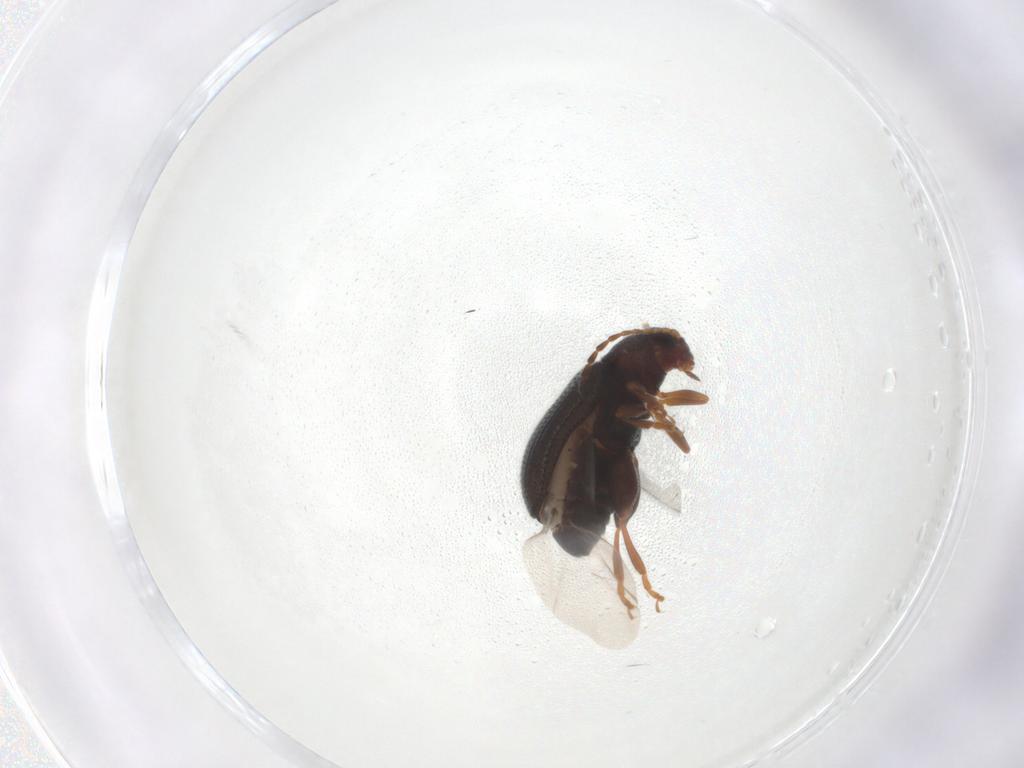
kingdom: Animalia
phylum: Arthropoda
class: Insecta
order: Coleoptera
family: Chrysomelidae
